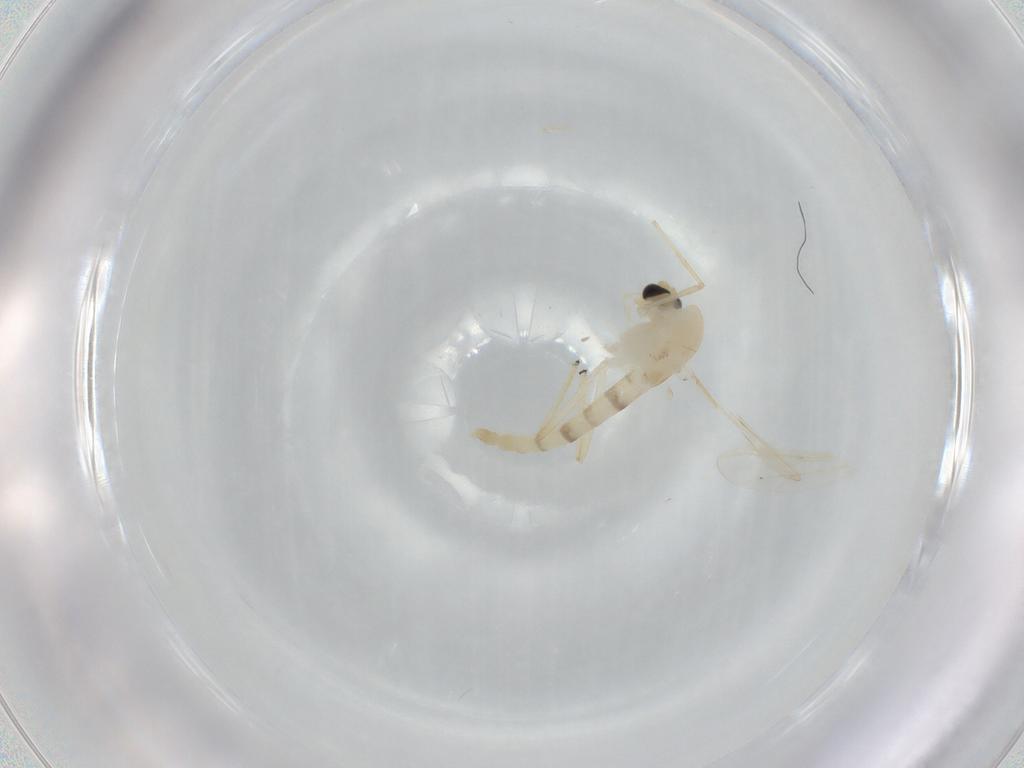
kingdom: Animalia
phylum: Arthropoda
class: Insecta
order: Diptera
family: Chironomidae
